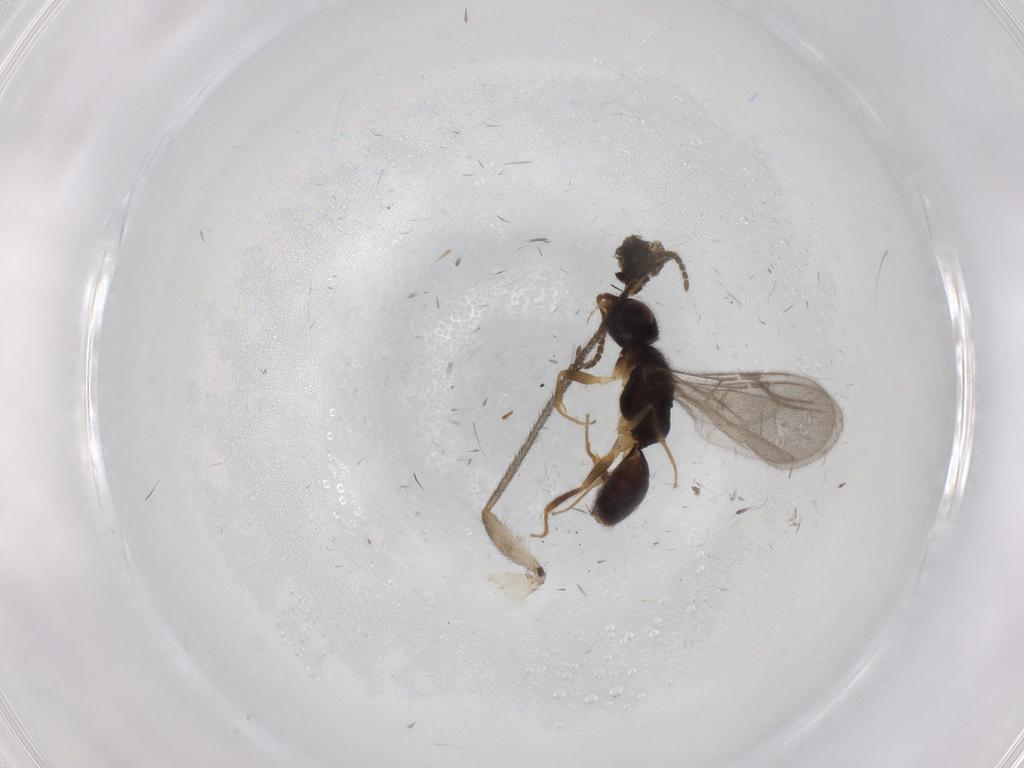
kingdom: Animalia
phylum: Arthropoda
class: Insecta
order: Hymenoptera
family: Bethylidae
